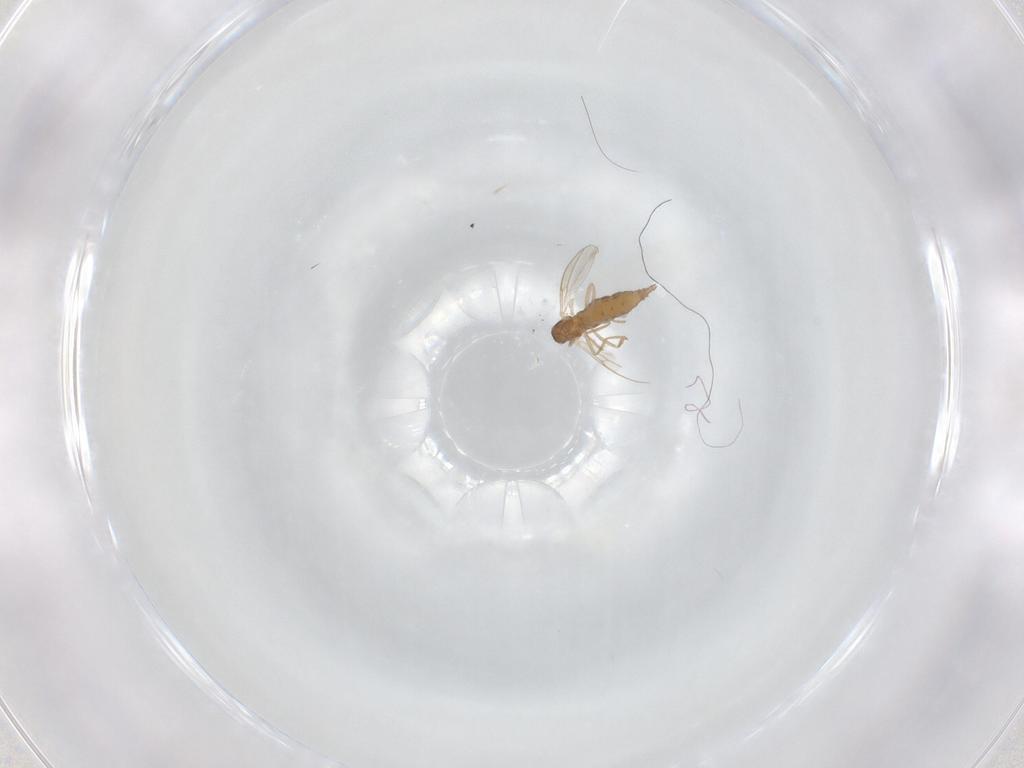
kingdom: Animalia
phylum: Arthropoda
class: Insecta
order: Diptera
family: Cecidomyiidae
